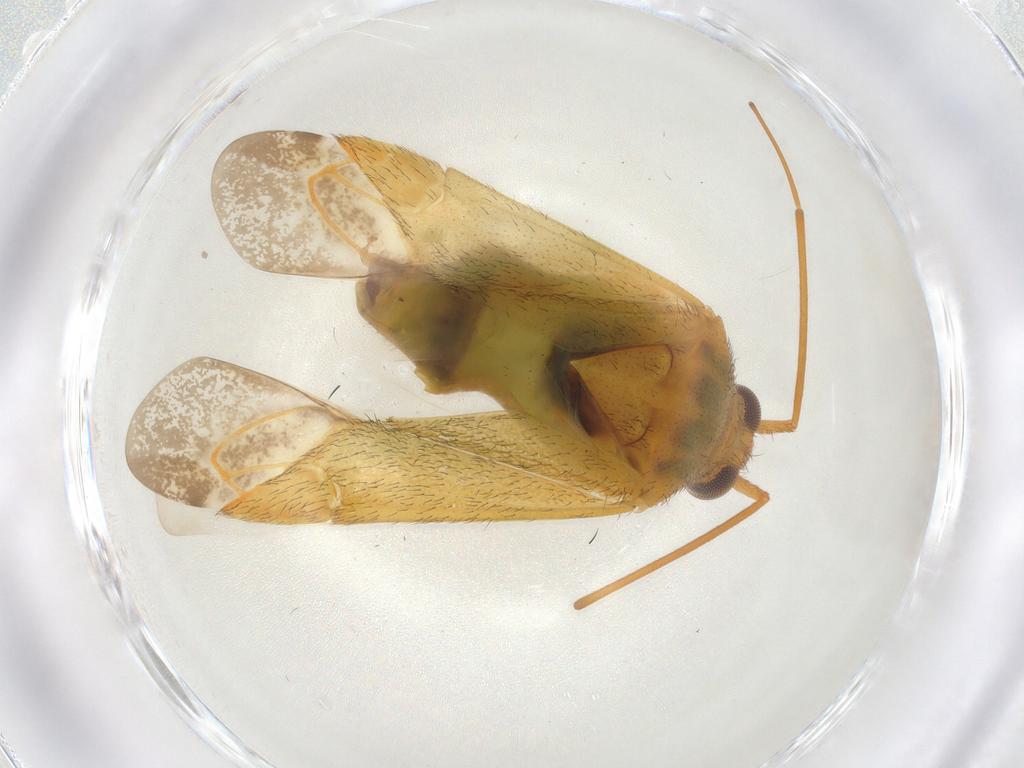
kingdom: Animalia
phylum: Arthropoda
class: Insecta
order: Hemiptera
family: Miridae
